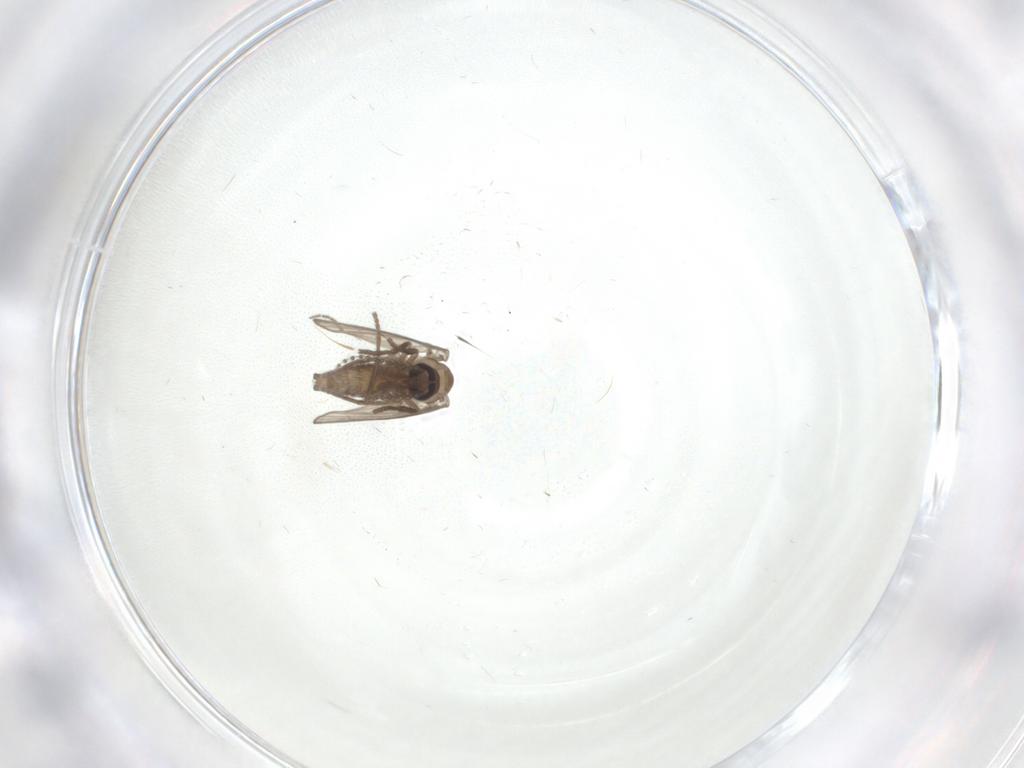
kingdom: Animalia
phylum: Arthropoda
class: Insecta
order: Diptera
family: Psychodidae
